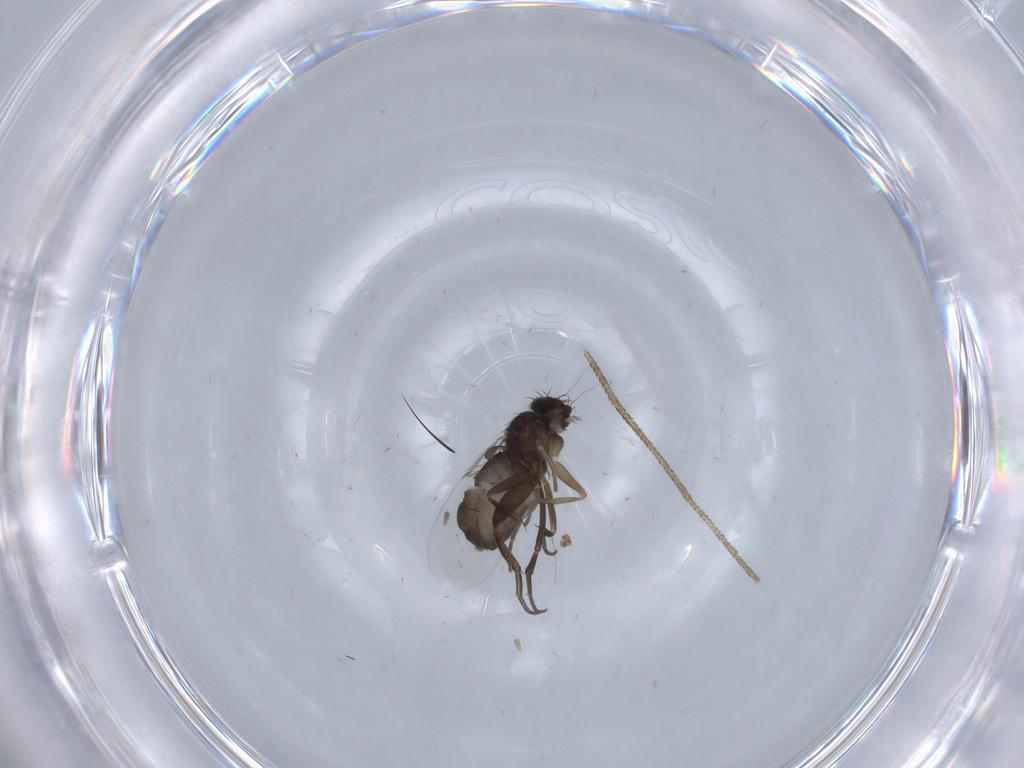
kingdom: Animalia
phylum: Arthropoda
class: Insecta
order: Diptera
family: Phoridae
